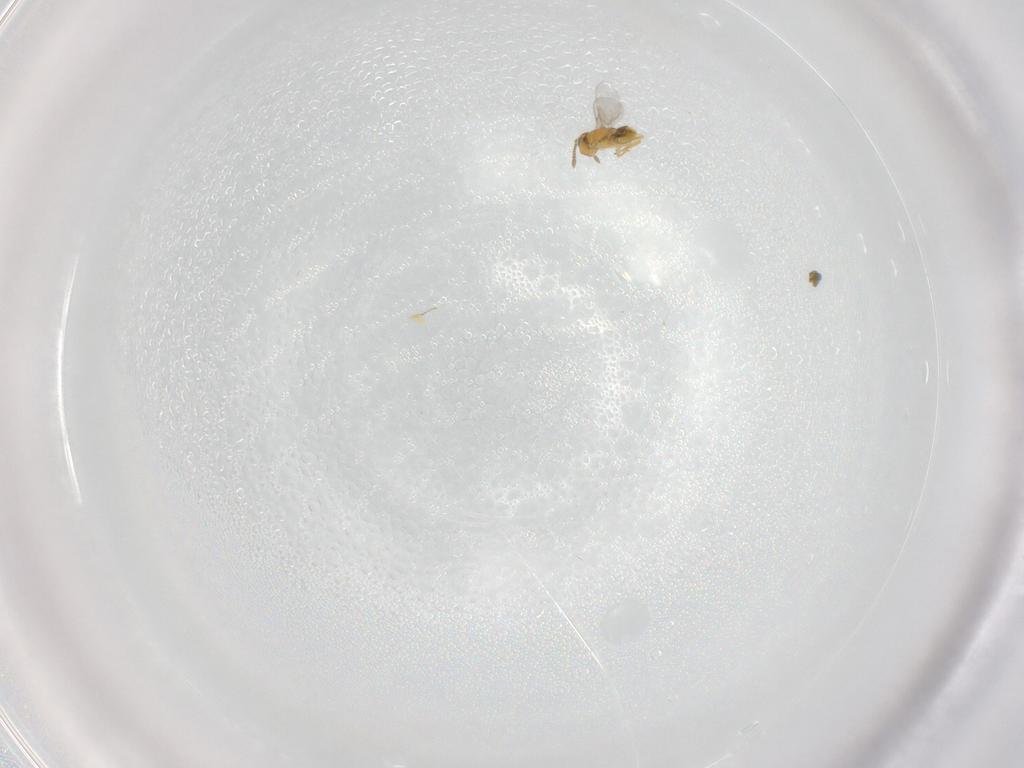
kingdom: Animalia
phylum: Arthropoda
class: Insecta
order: Hymenoptera
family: Encyrtidae
